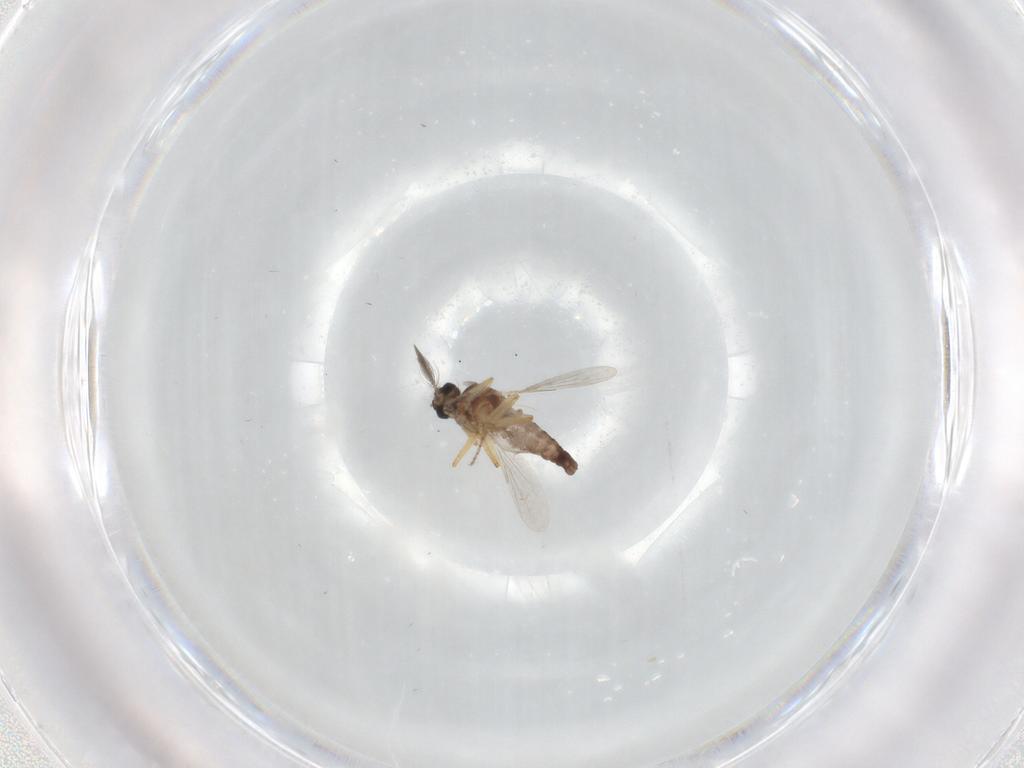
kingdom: Animalia
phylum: Arthropoda
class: Insecta
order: Diptera
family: Ceratopogonidae
